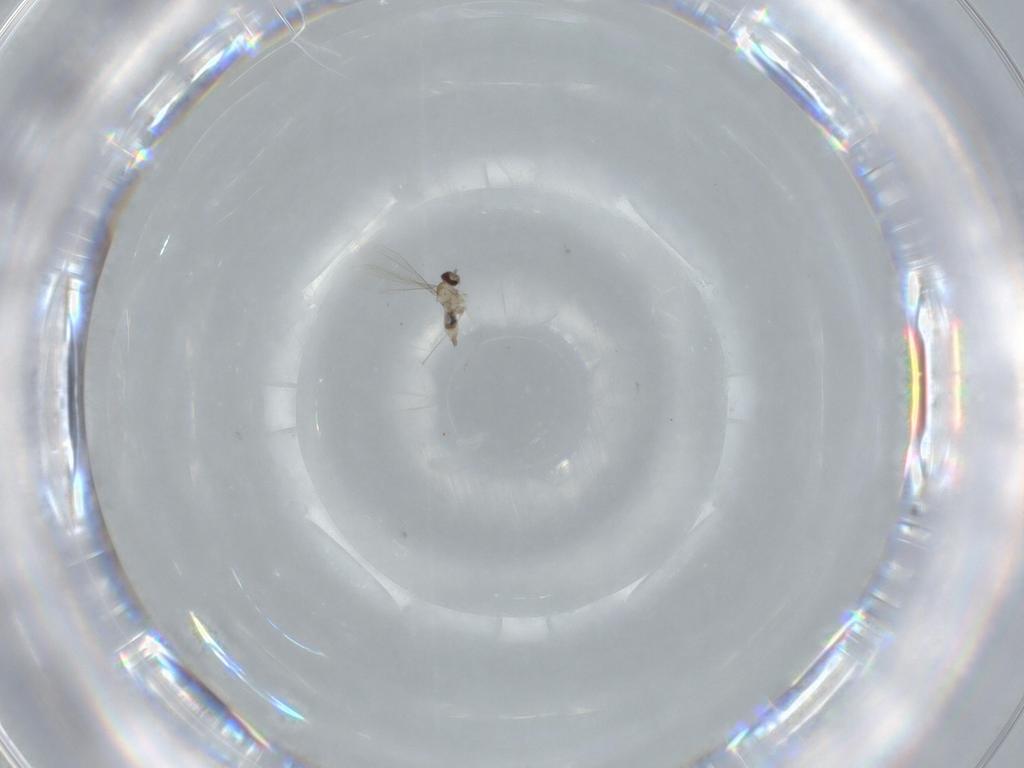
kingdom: Animalia
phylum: Arthropoda
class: Insecta
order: Diptera
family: Cecidomyiidae
